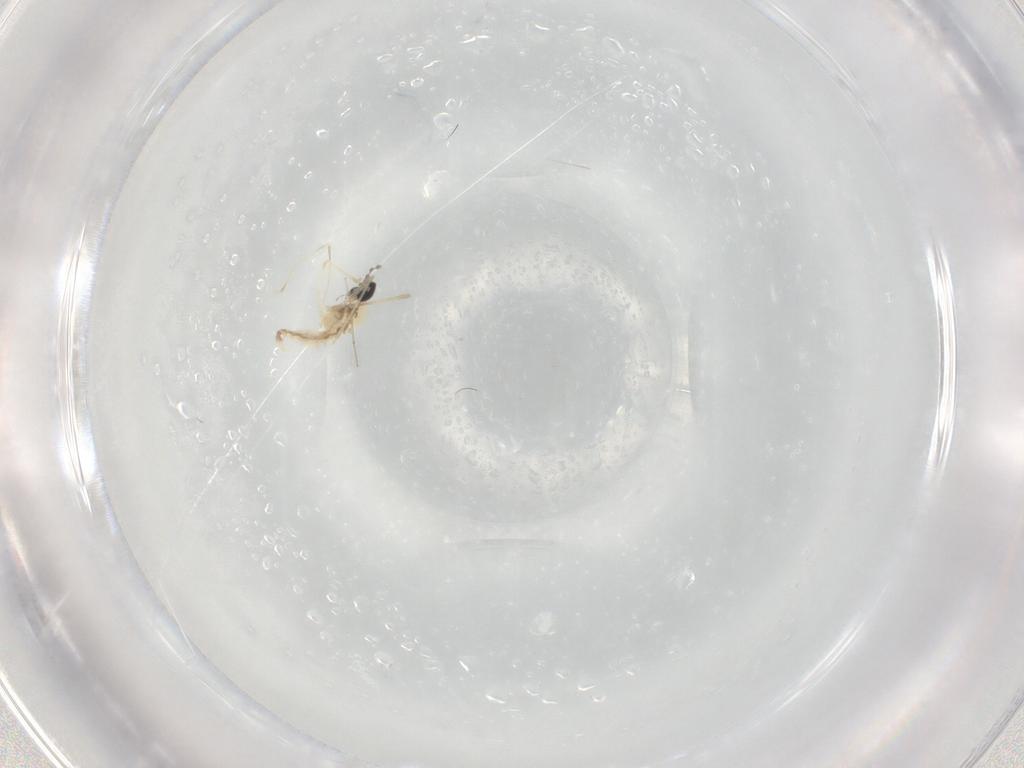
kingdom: Animalia
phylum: Arthropoda
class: Insecta
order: Diptera
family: Cecidomyiidae
